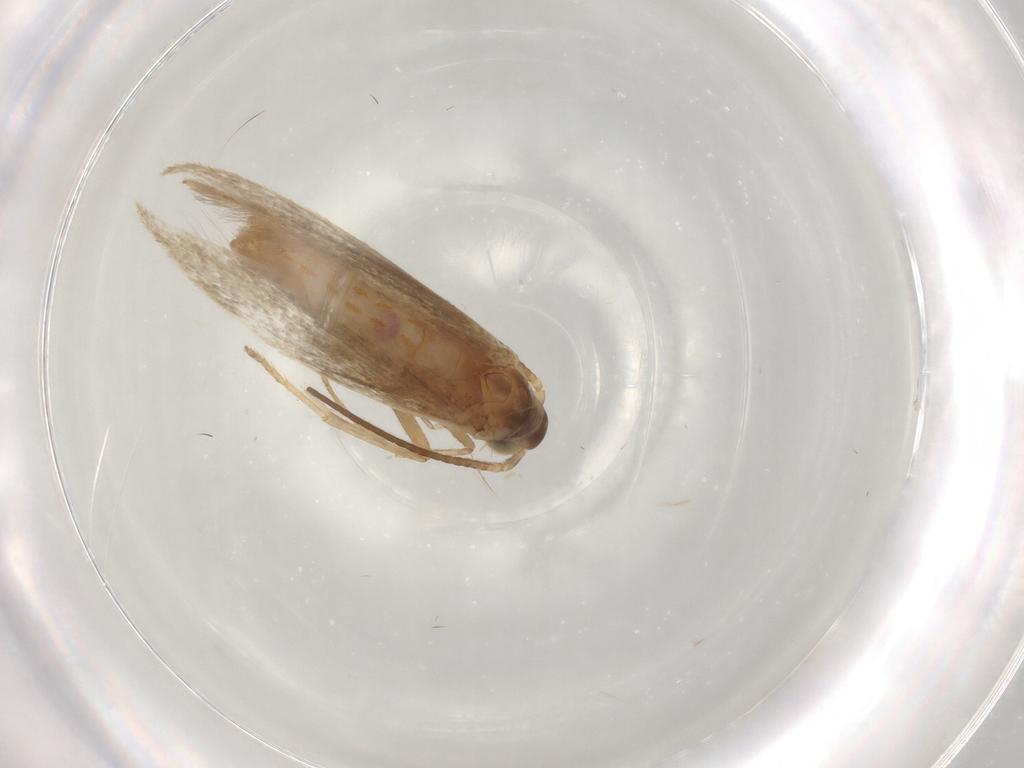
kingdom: Animalia
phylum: Arthropoda
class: Insecta
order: Lepidoptera
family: Coleophoridae
